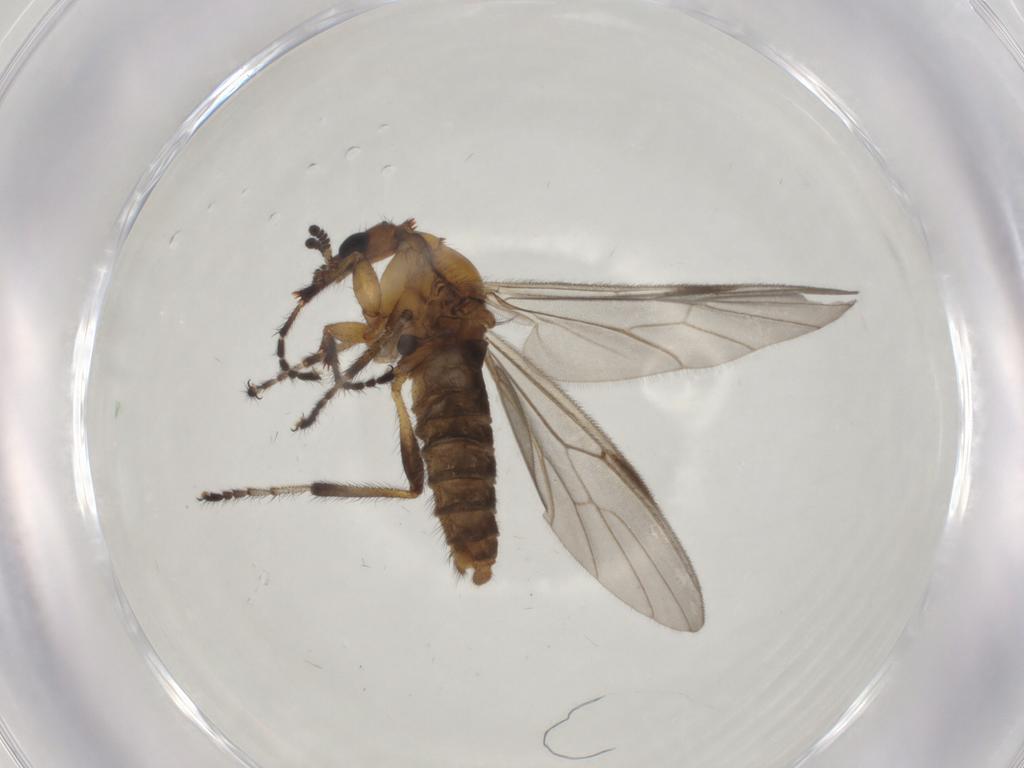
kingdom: Animalia
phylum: Arthropoda
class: Insecta
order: Diptera
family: Bibionidae
